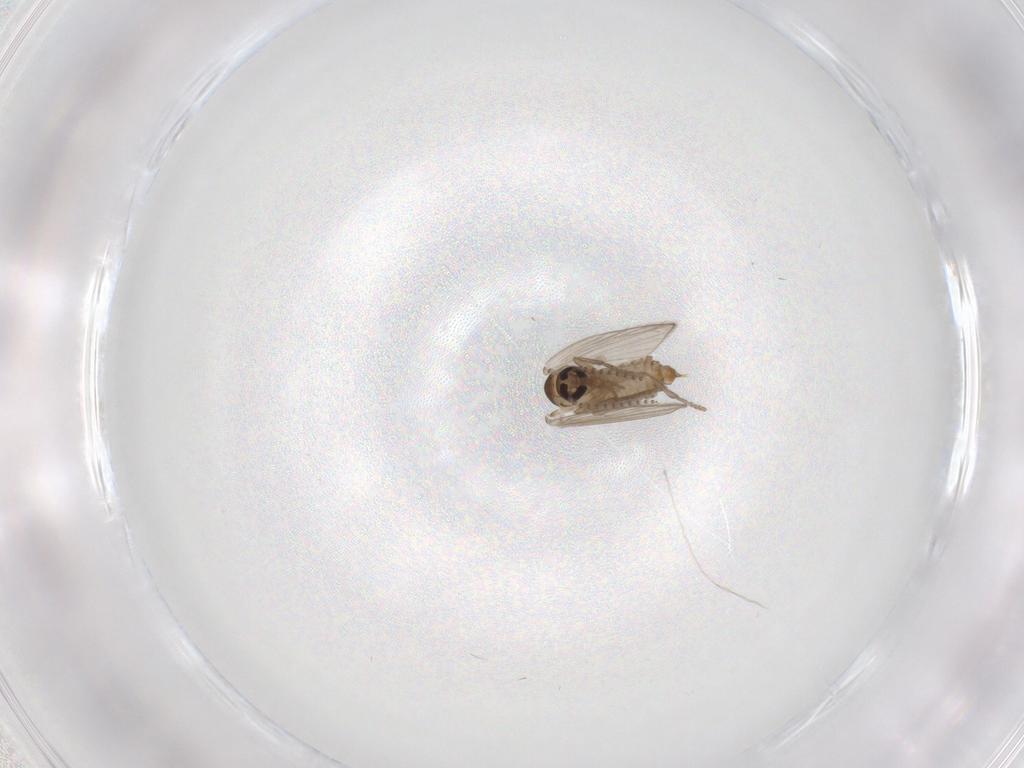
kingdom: Animalia
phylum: Arthropoda
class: Insecta
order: Diptera
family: Psychodidae
